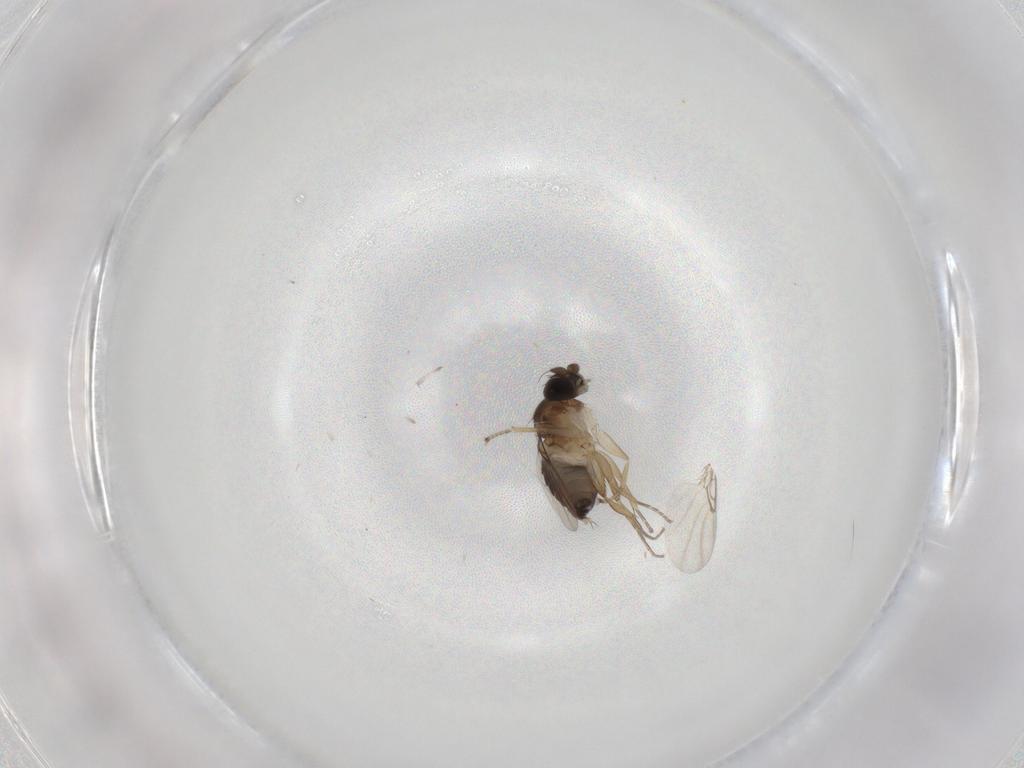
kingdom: Animalia
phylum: Arthropoda
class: Insecta
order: Diptera
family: Phoridae
